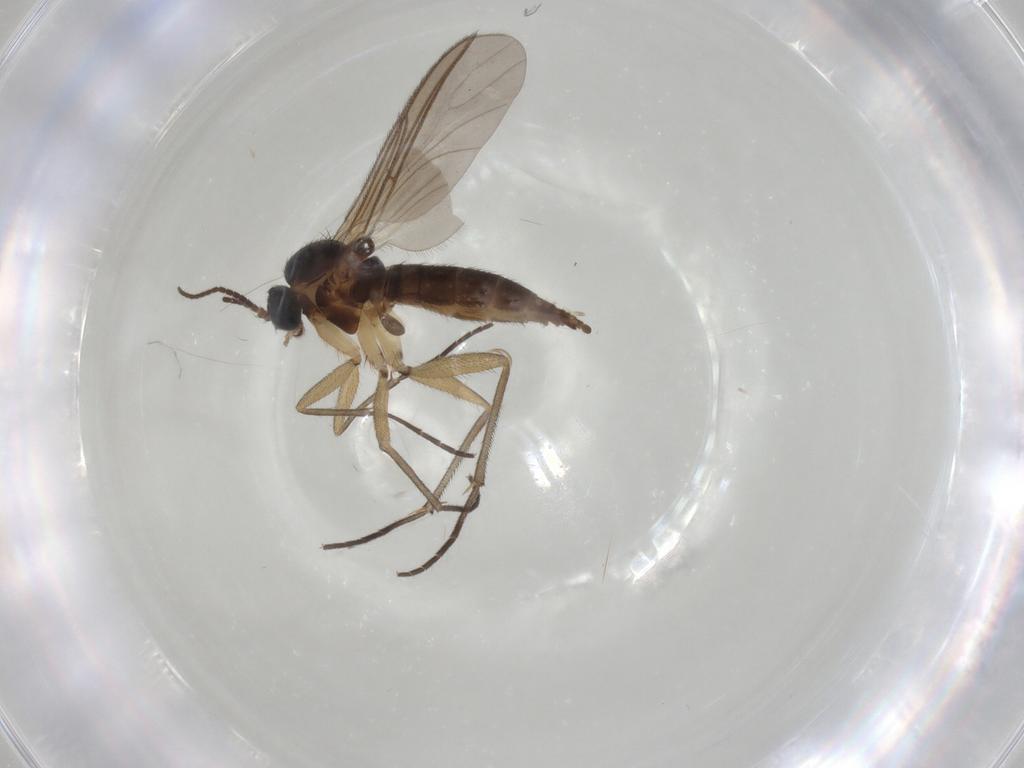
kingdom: Animalia
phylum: Arthropoda
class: Insecta
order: Diptera
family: Sciaridae
